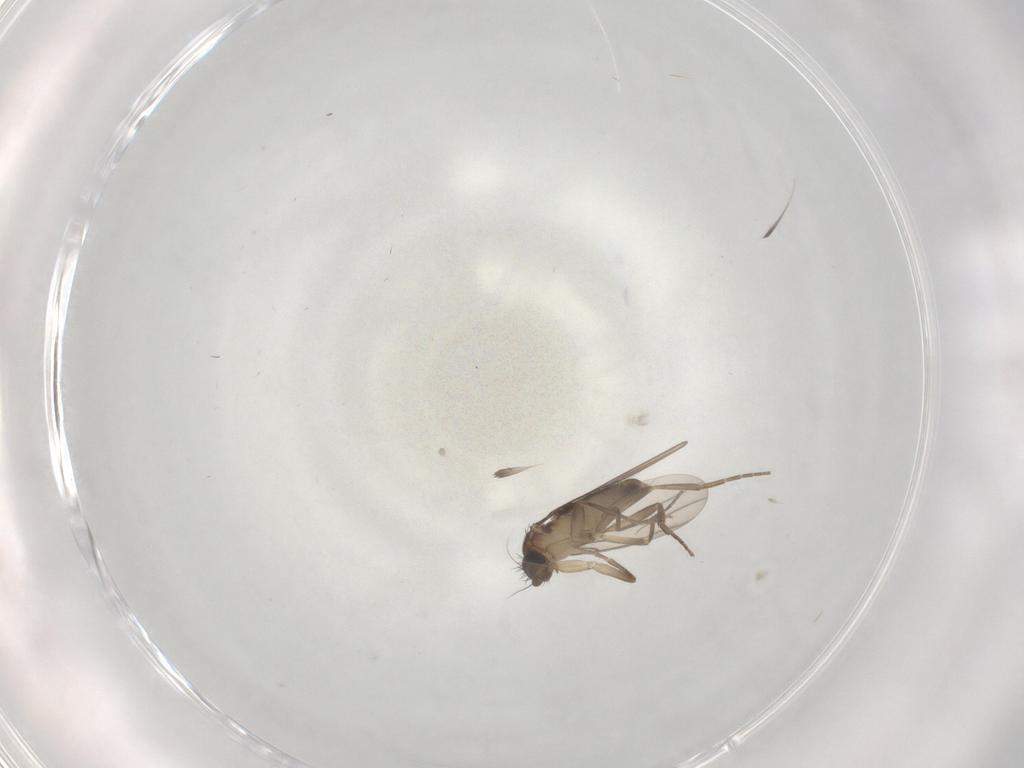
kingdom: Animalia
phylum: Arthropoda
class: Insecta
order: Diptera
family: Phoridae
